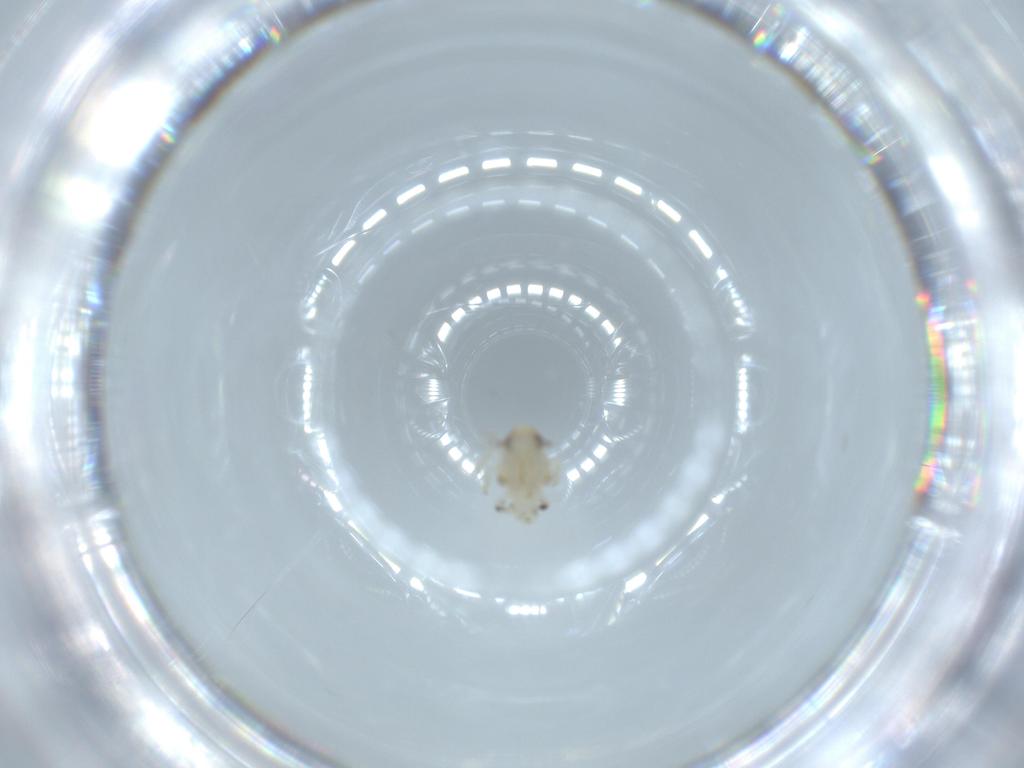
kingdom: Animalia
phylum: Arthropoda
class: Insecta
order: Hemiptera
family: Nogodinidae
